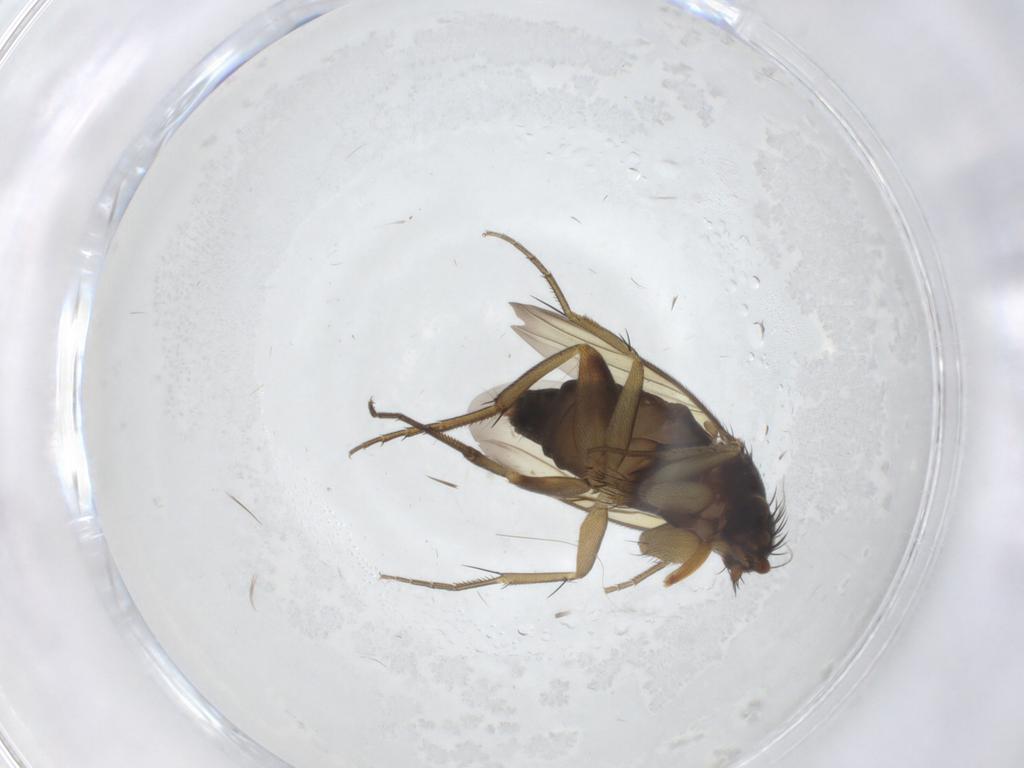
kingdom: Animalia
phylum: Arthropoda
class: Insecta
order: Diptera
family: Phoridae
